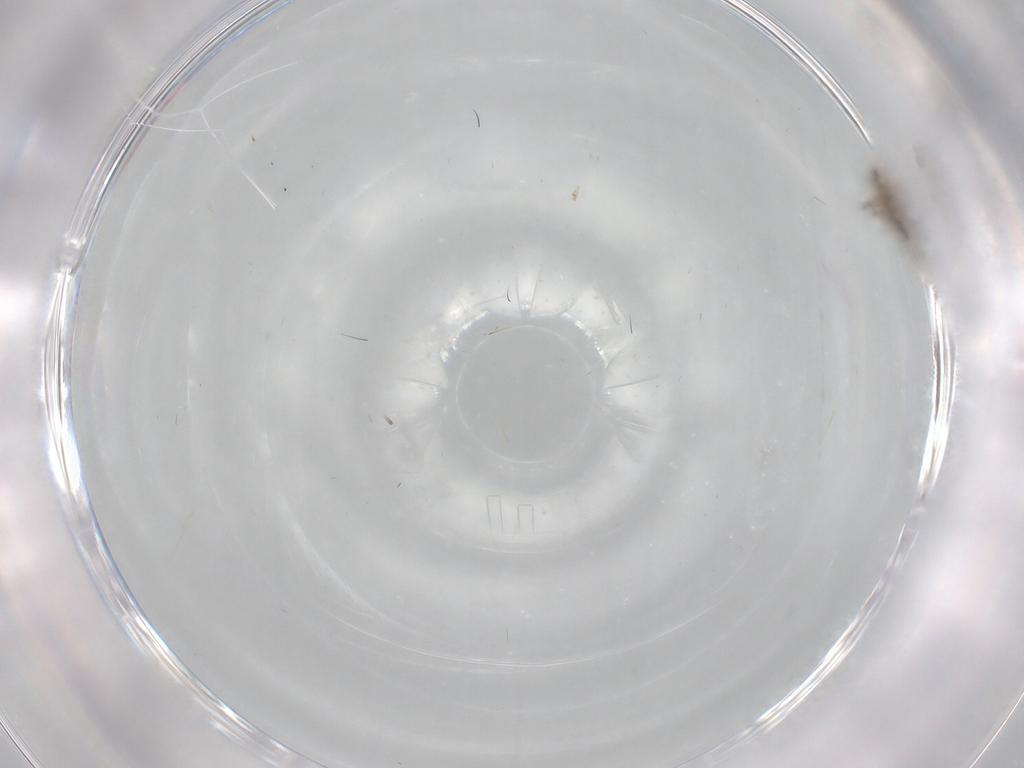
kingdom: Animalia
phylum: Arthropoda
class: Insecta
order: Diptera
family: Chironomidae
